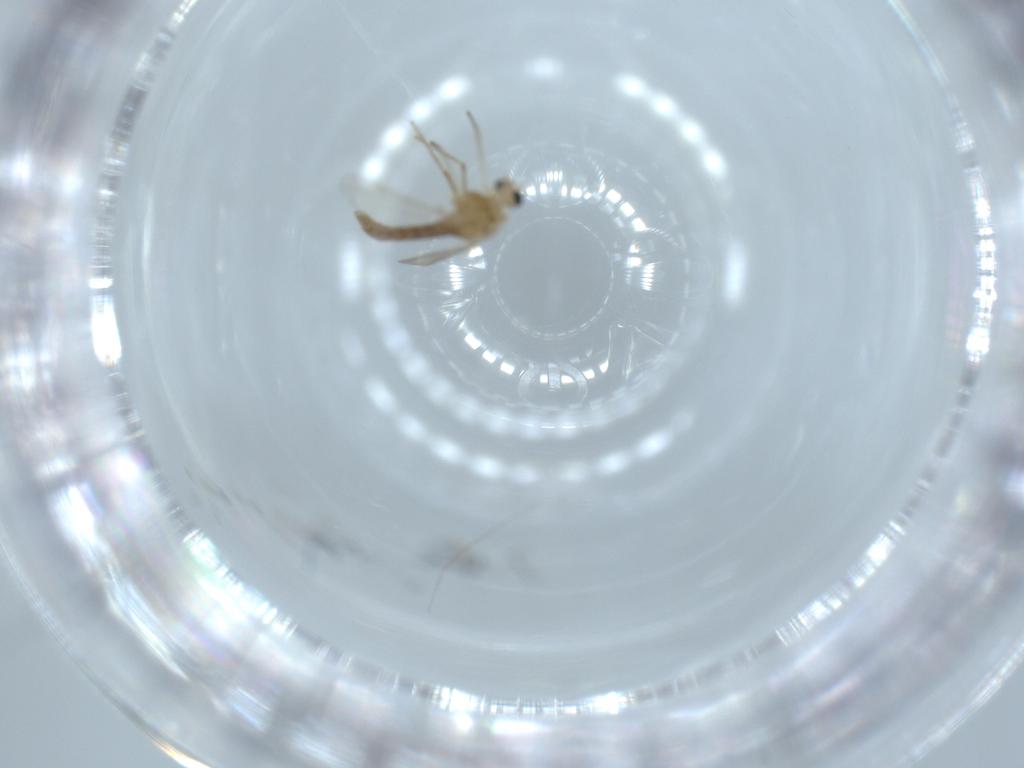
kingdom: Animalia
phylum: Arthropoda
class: Insecta
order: Diptera
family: Chironomidae
